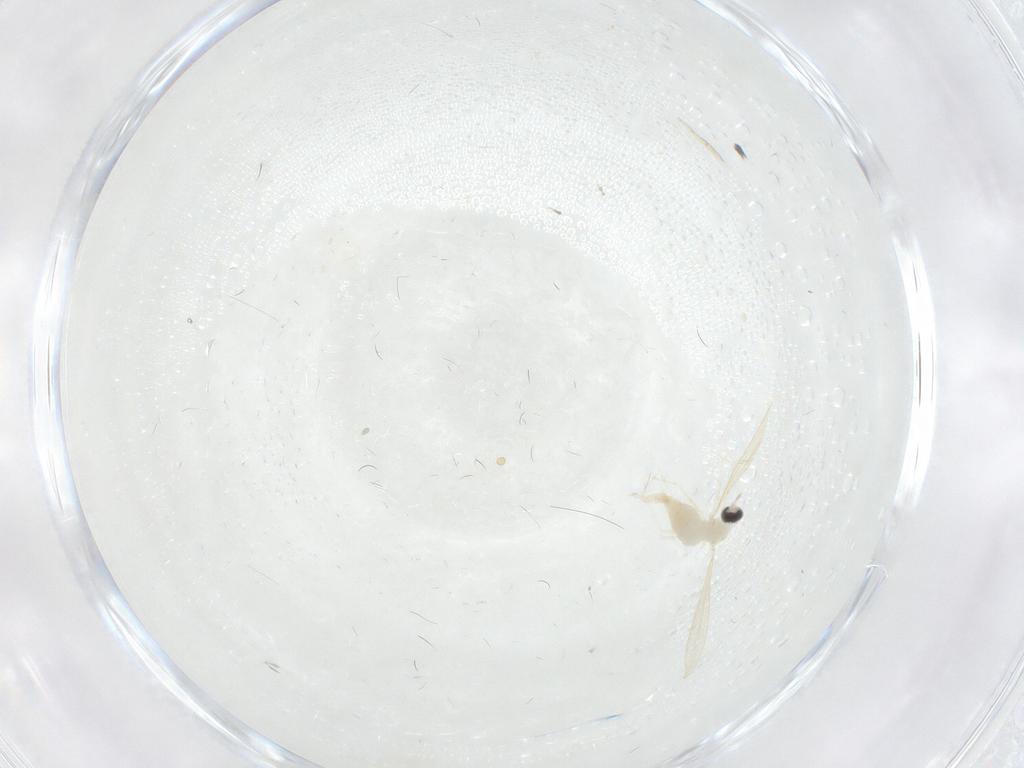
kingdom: Animalia
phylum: Arthropoda
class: Insecta
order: Diptera
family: Cecidomyiidae
